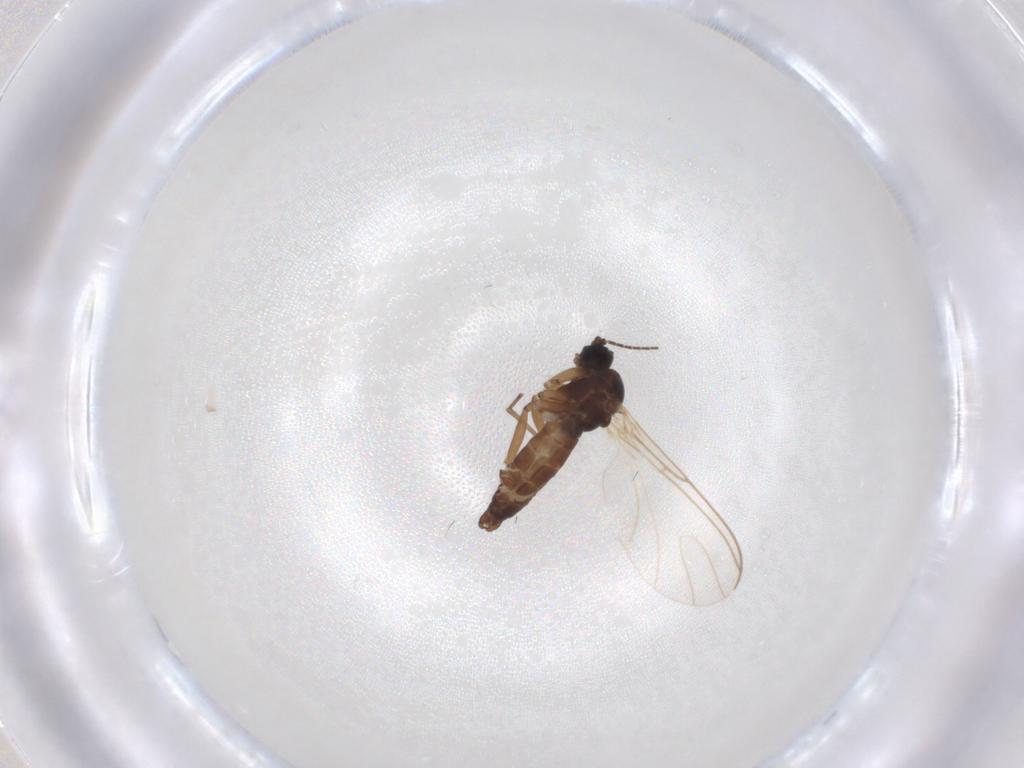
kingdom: Animalia
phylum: Arthropoda
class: Insecta
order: Diptera
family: Sciaridae
